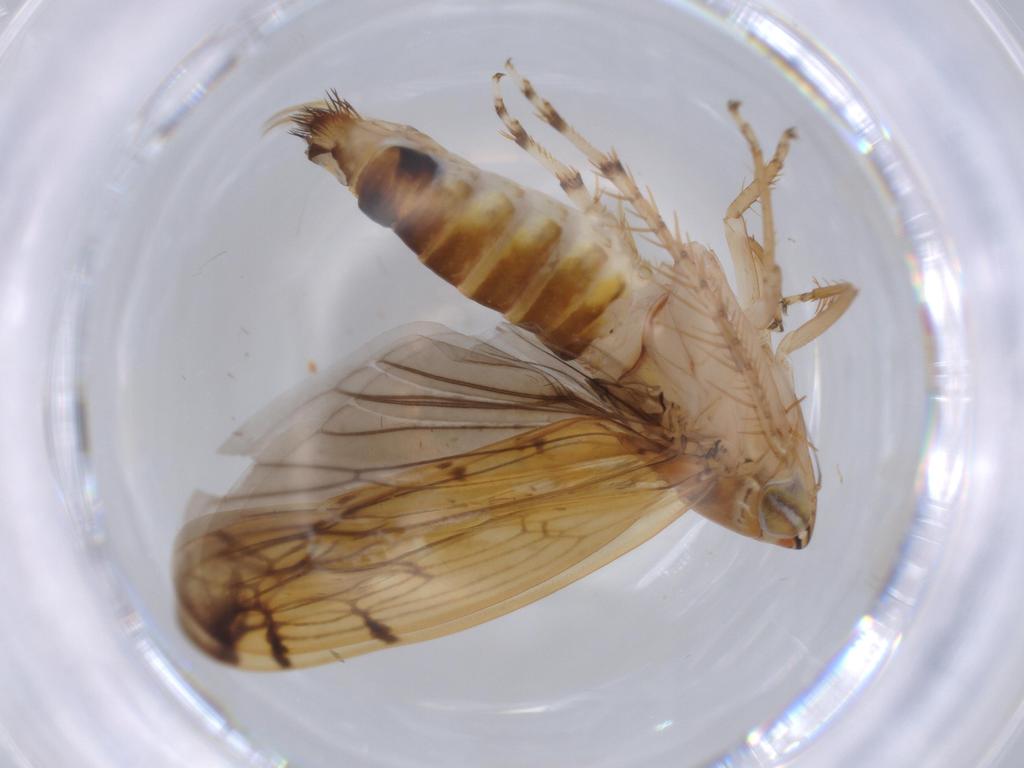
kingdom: Animalia
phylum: Arthropoda
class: Insecta
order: Hemiptera
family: Cicadellidae
